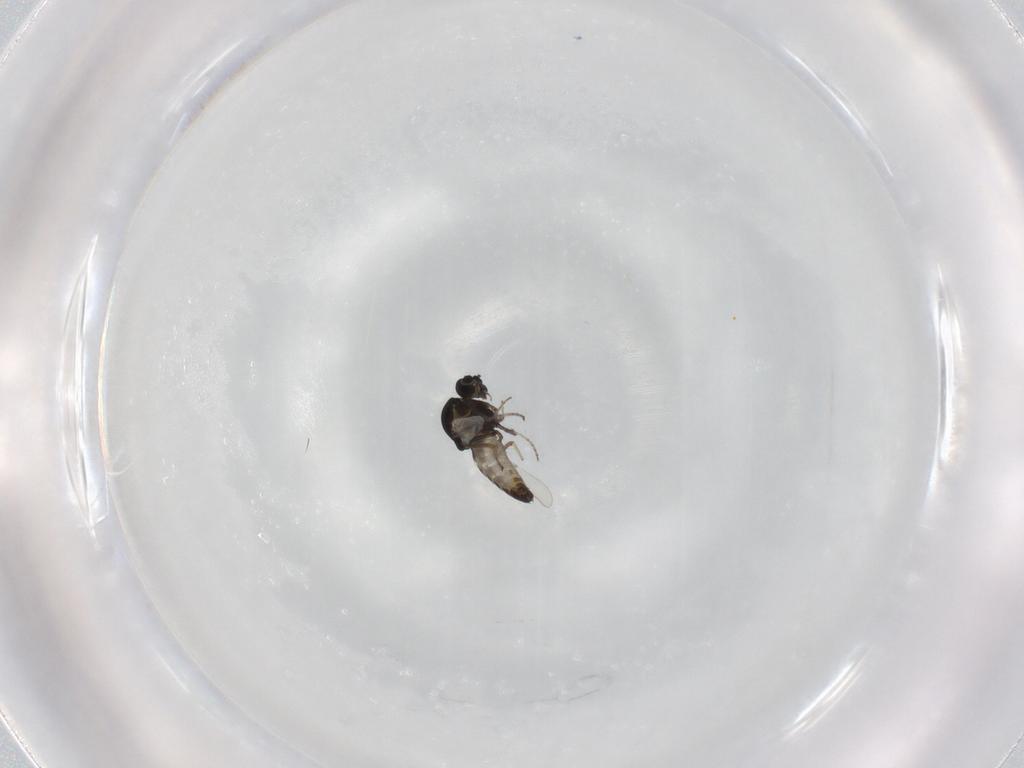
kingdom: Animalia
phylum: Arthropoda
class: Insecta
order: Diptera
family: Ceratopogonidae
